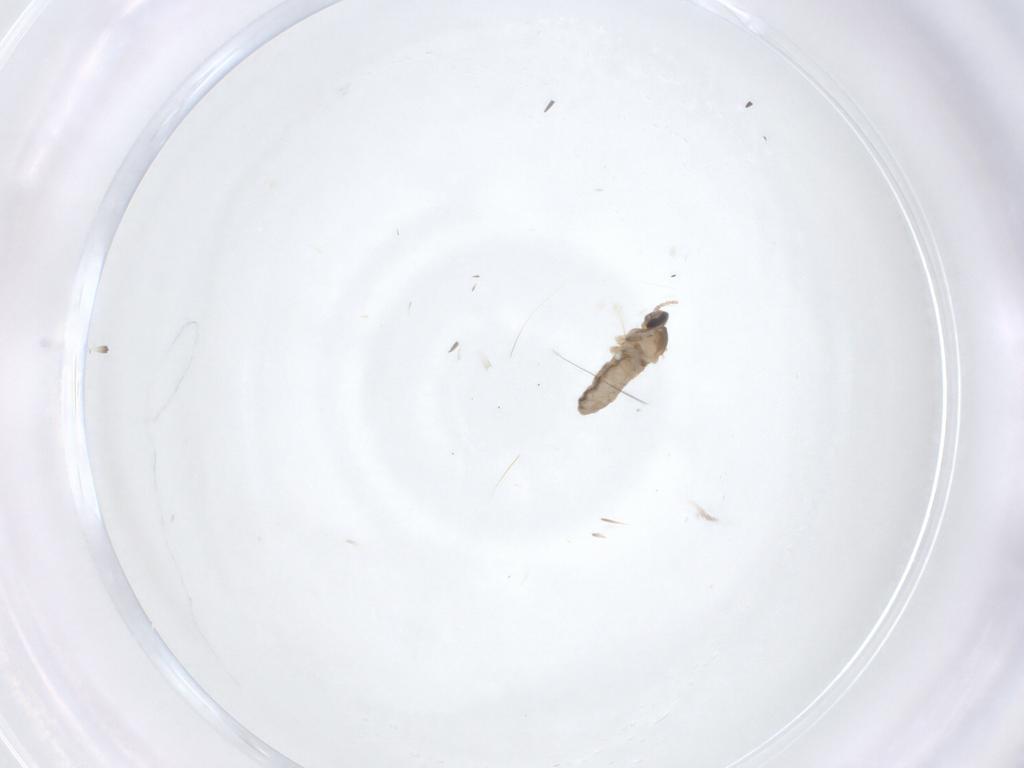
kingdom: Animalia
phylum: Arthropoda
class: Insecta
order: Diptera
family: Cecidomyiidae
